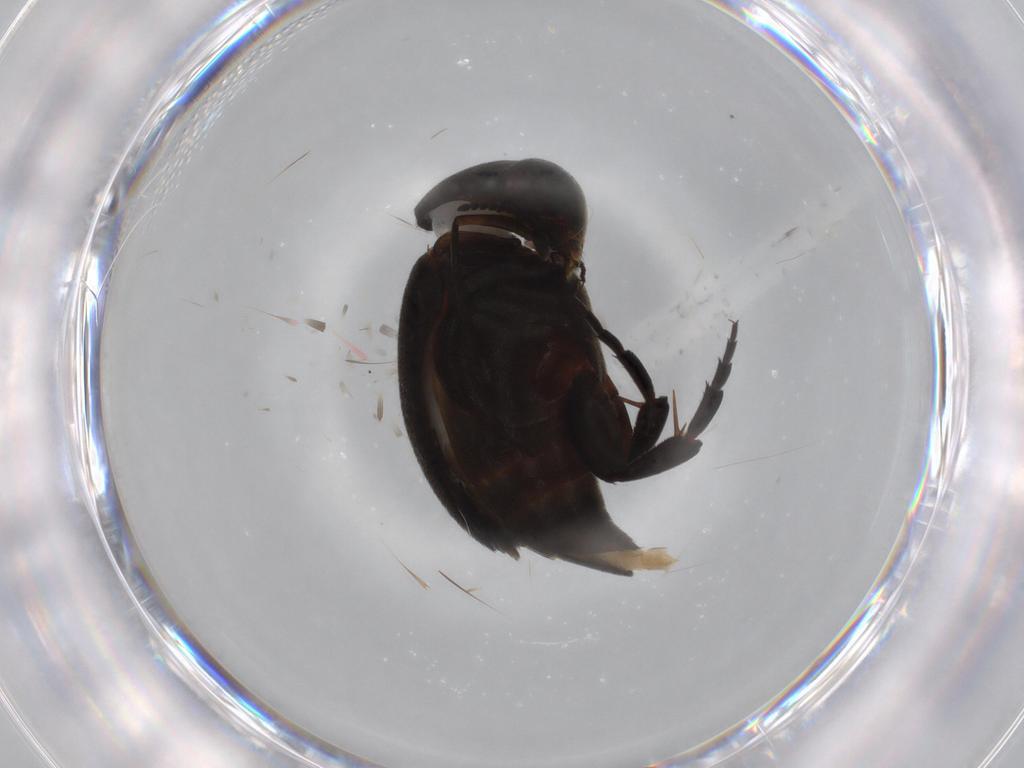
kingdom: Animalia
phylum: Arthropoda
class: Insecta
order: Coleoptera
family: Mordellidae
